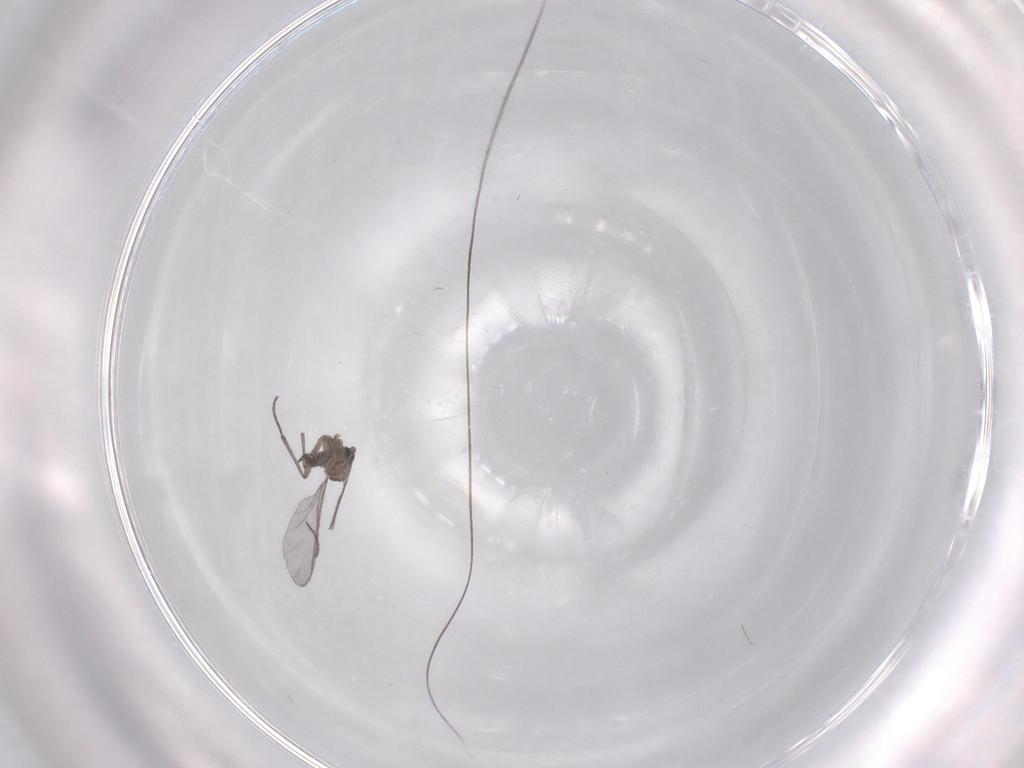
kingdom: Animalia
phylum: Arthropoda
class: Insecta
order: Diptera
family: Sciaridae
